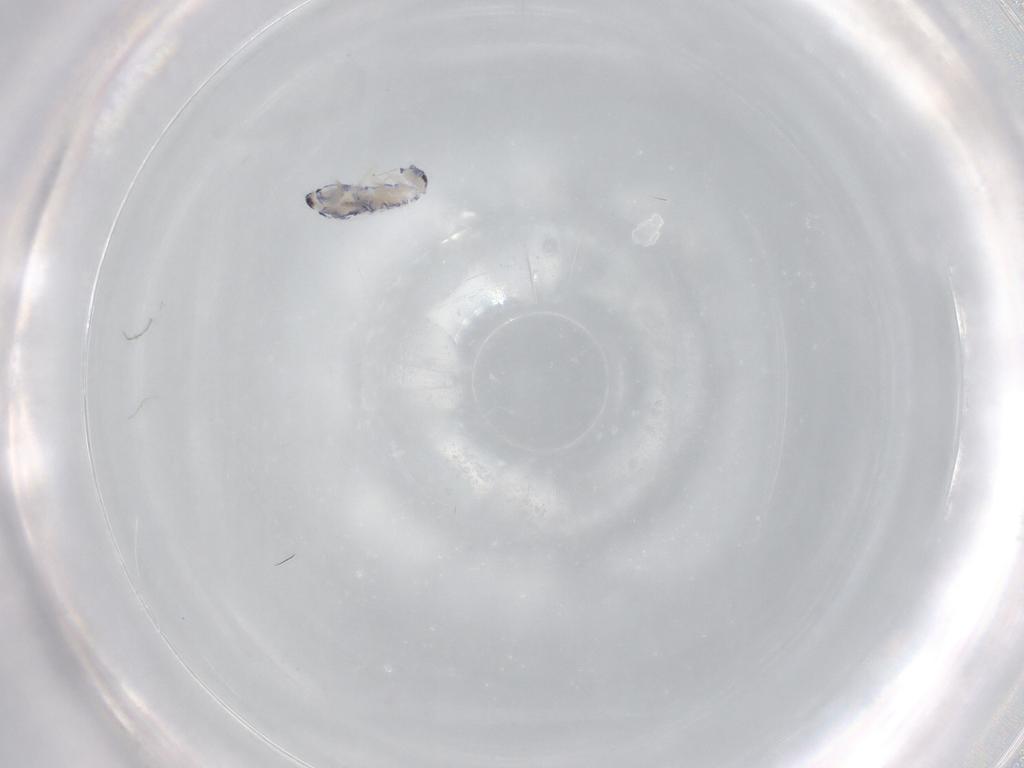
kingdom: Animalia
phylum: Arthropoda
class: Collembola
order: Entomobryomorpha
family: Entomobryidae
